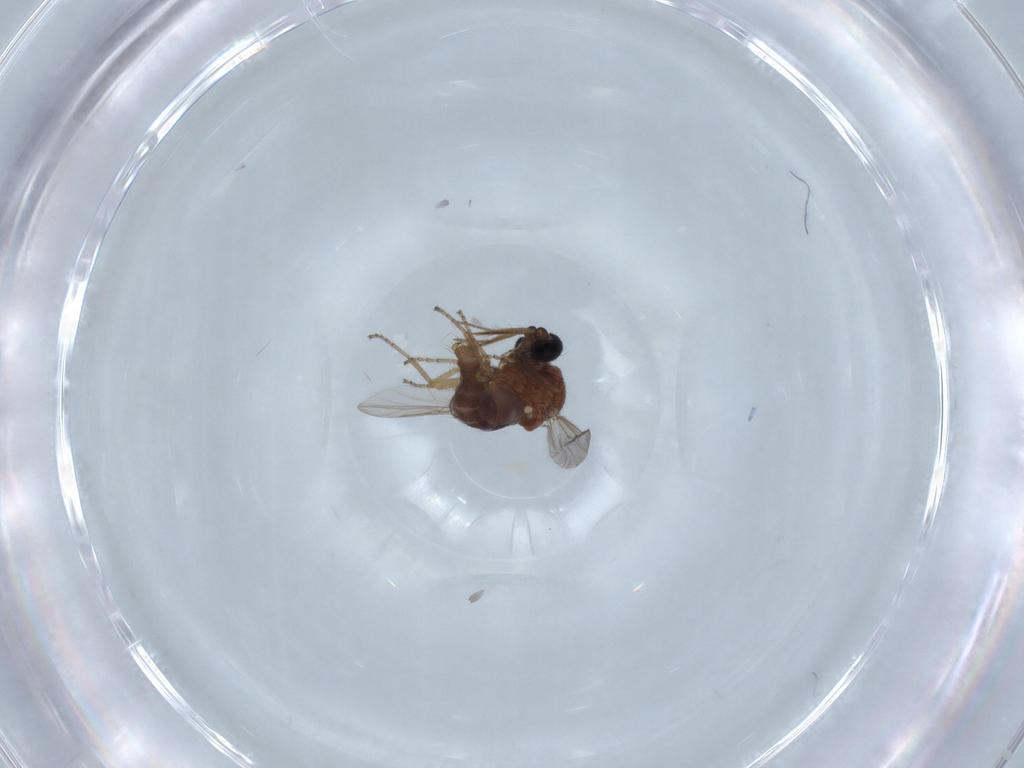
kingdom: Animalia
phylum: Arthropoda
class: Insecta
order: Diptera
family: Ceratopogonidae
